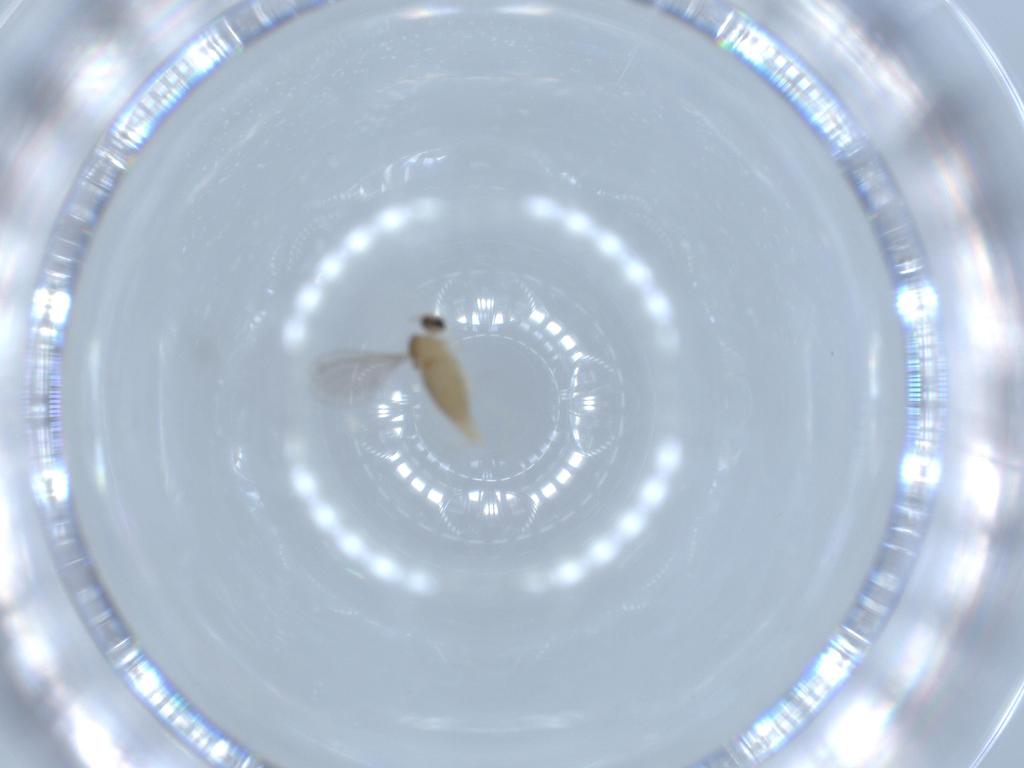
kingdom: Animalia
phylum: Arthropoda
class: Insecta
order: Diptera
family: Cecidomyiidae
